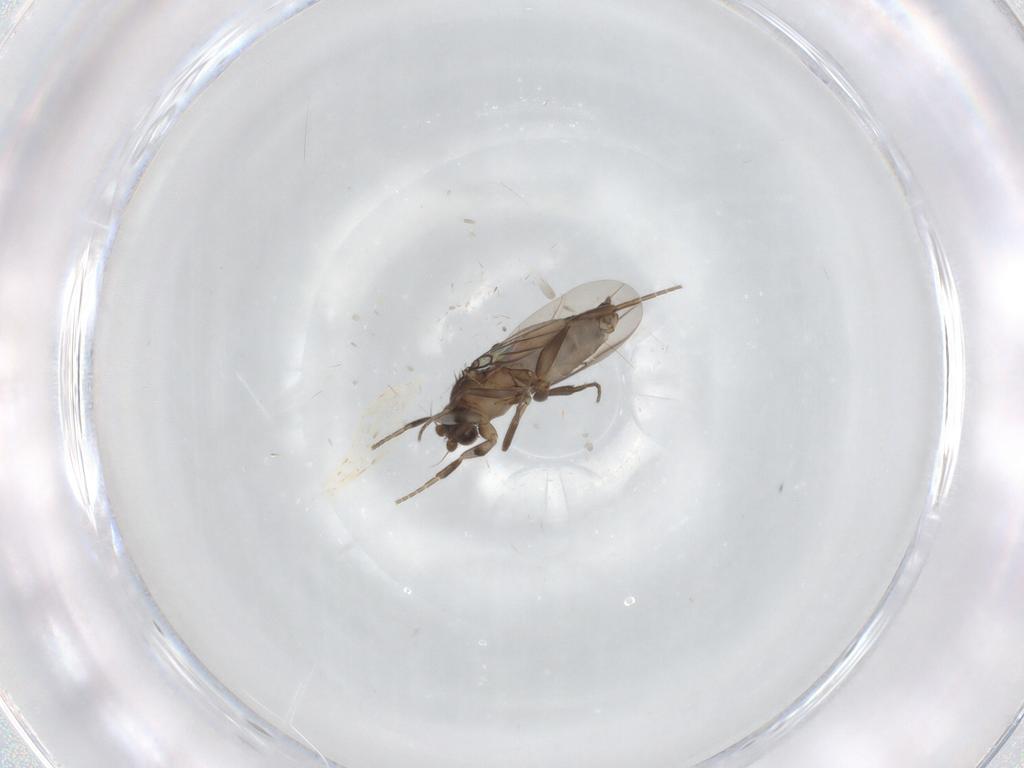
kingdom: Animalia
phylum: Arthropoda
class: Insecta
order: Diptera
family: Phoridae
